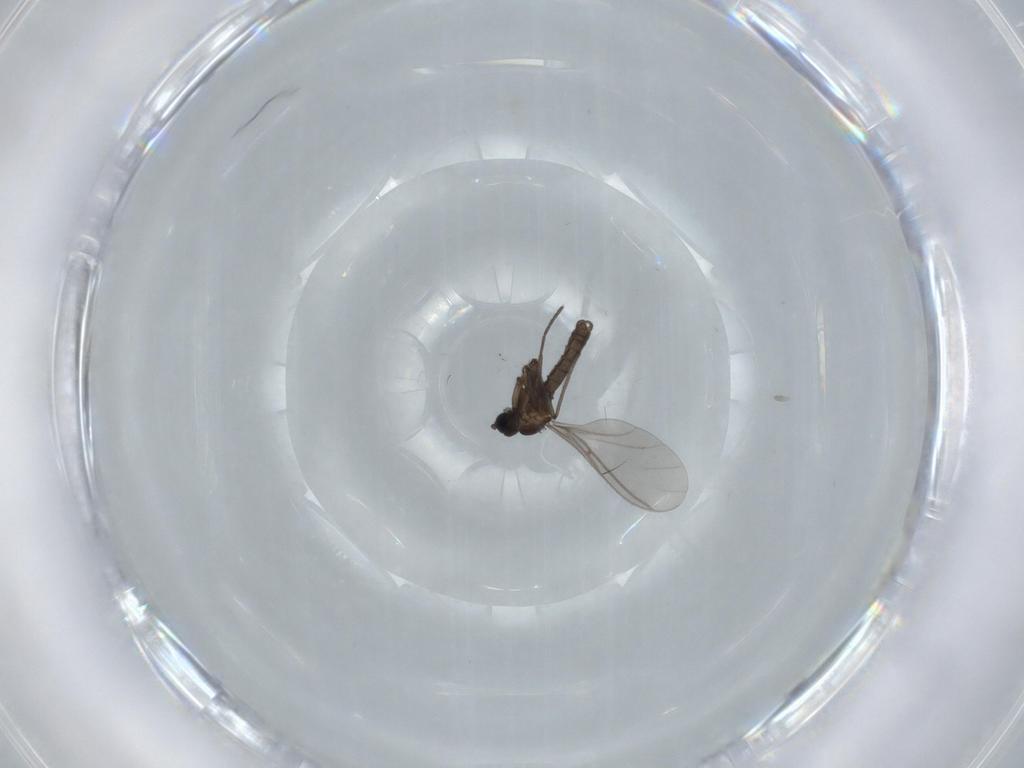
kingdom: Animalia
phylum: Arthropoda
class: Insecta
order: Diptera
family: Sciaridae
